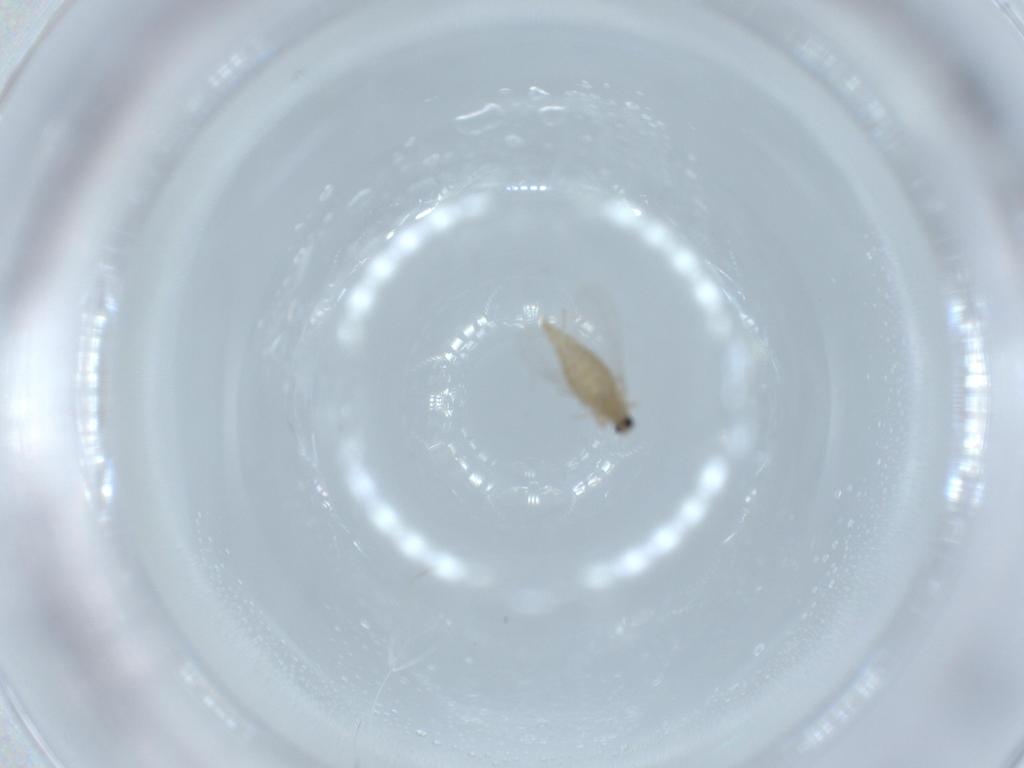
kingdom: Animalia
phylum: Arthropoda
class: Insecta
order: Diptera
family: Cecidomyiidae
